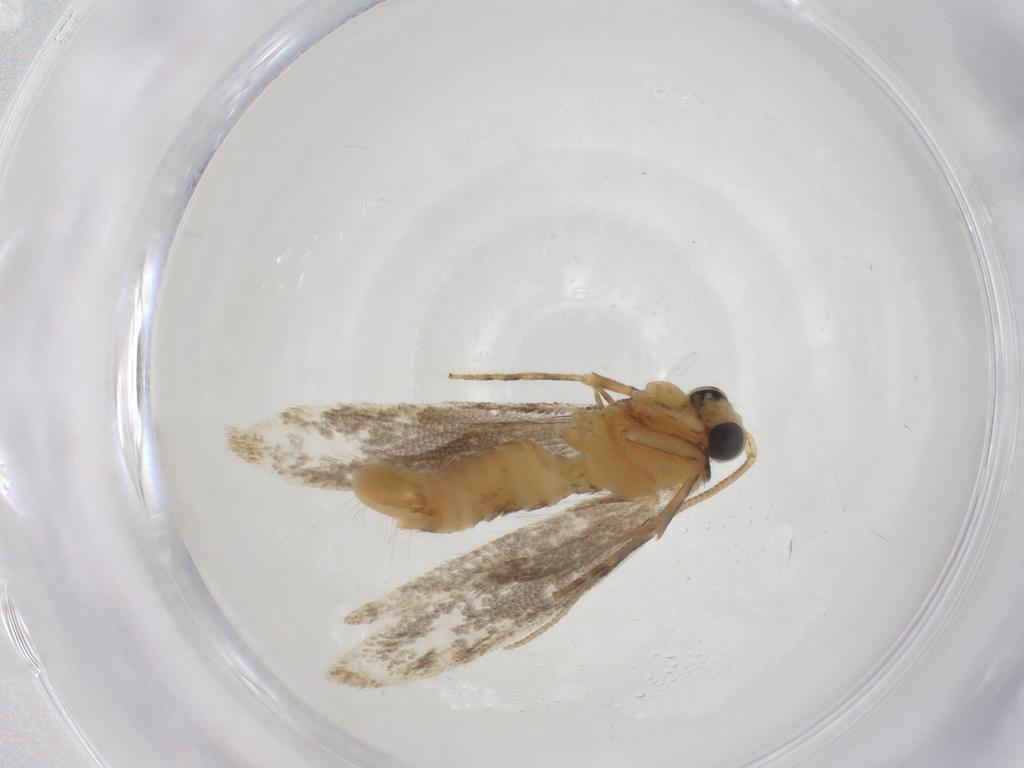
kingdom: Animalia
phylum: Arthropoda
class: Insecta
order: Lepidoptera
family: Tineidae
